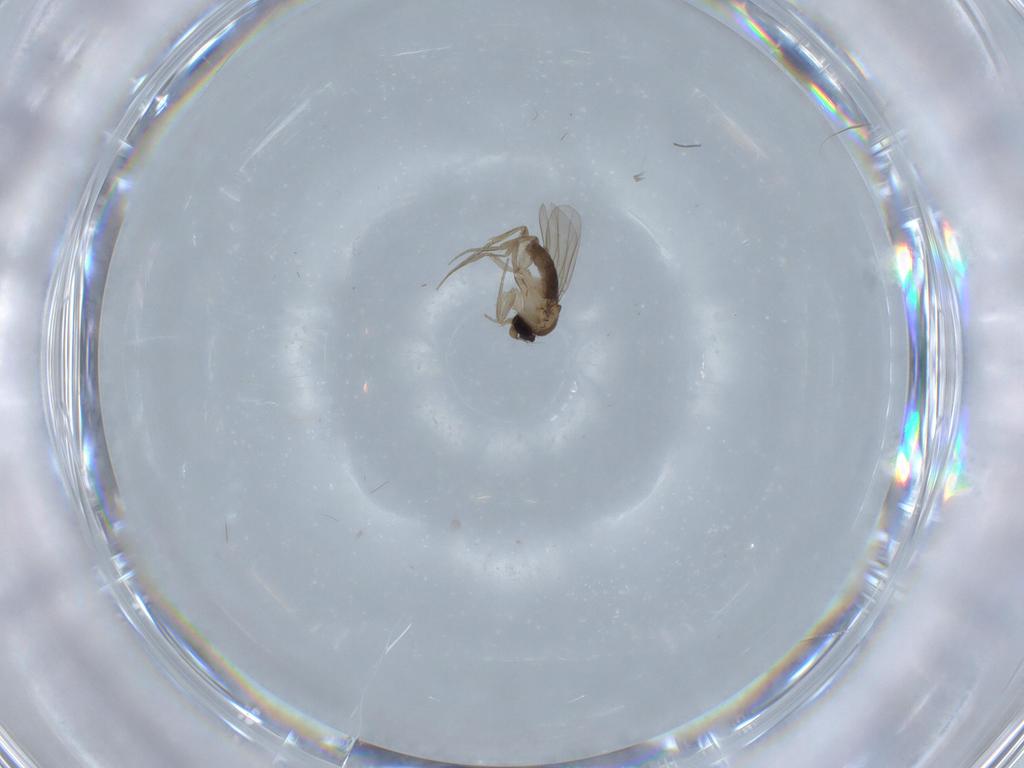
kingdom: Animalia
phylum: Arthropoda
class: Insecta
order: Diptera
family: Cecidomyiidae
